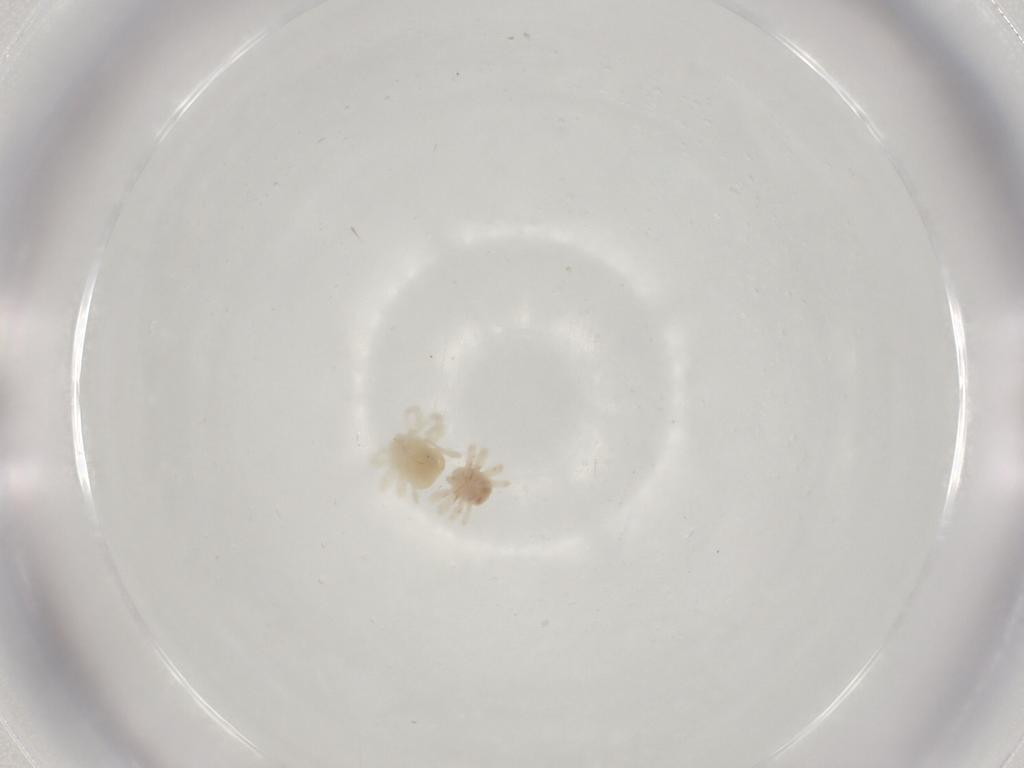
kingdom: Animalia
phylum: Arthropoda
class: Arachnida
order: Trombidiformes
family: Anystidae
